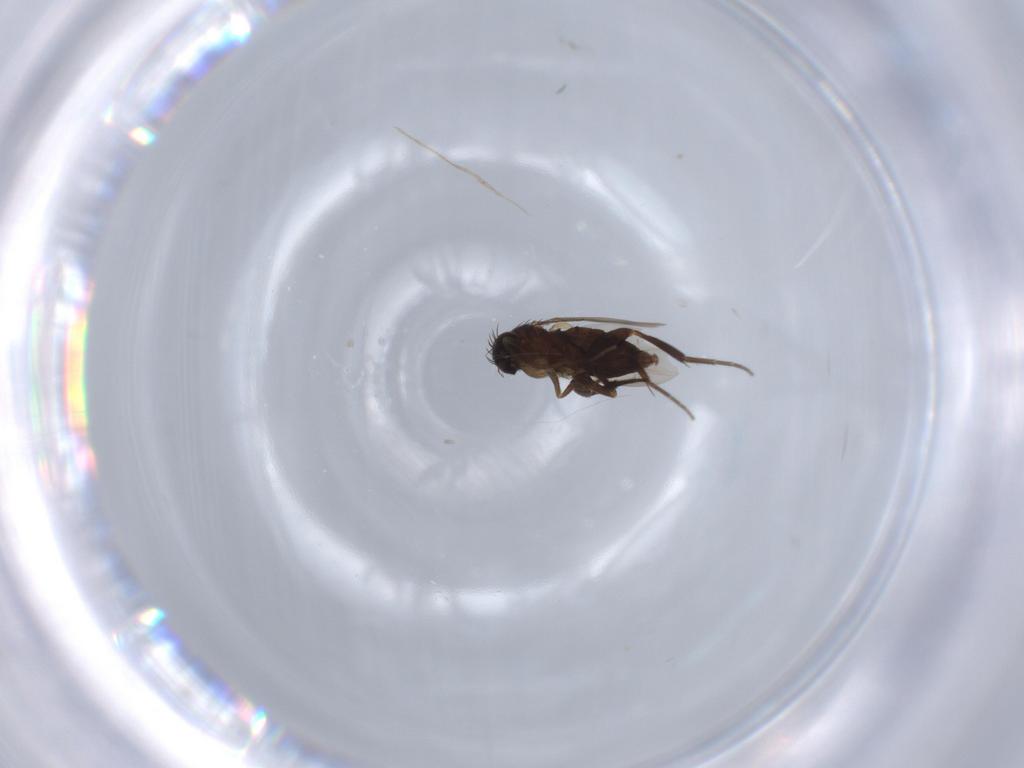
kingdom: Animalia
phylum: Arthropoda
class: Insecta
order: Diptera
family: Phoridae
